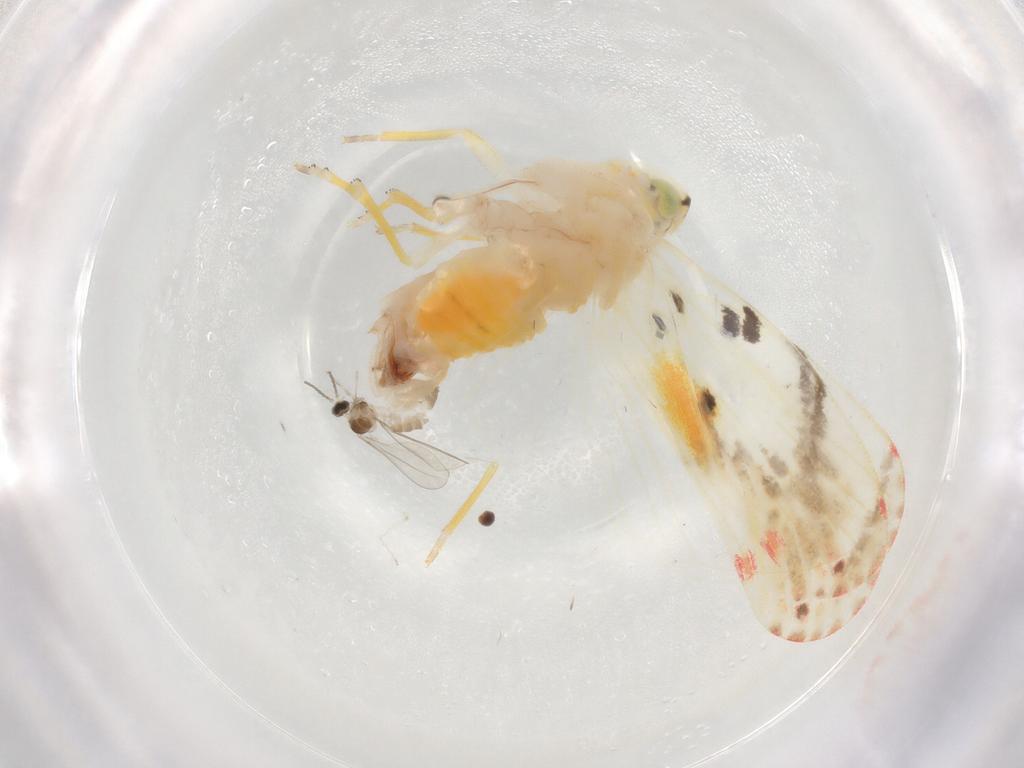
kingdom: Animalia
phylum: Arthropoda
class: Insecta
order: Diptera
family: Cecidomyiidae
